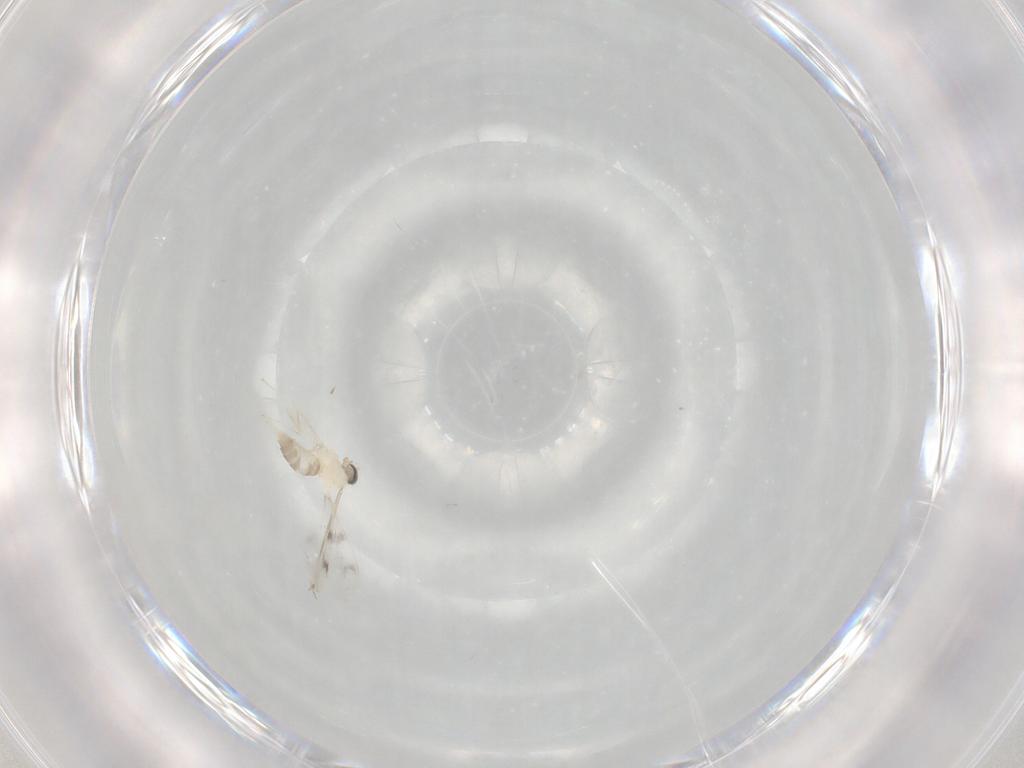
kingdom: Animalia
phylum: Arthropoda
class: Insecta
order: Diptera
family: Cecidomyiidae
